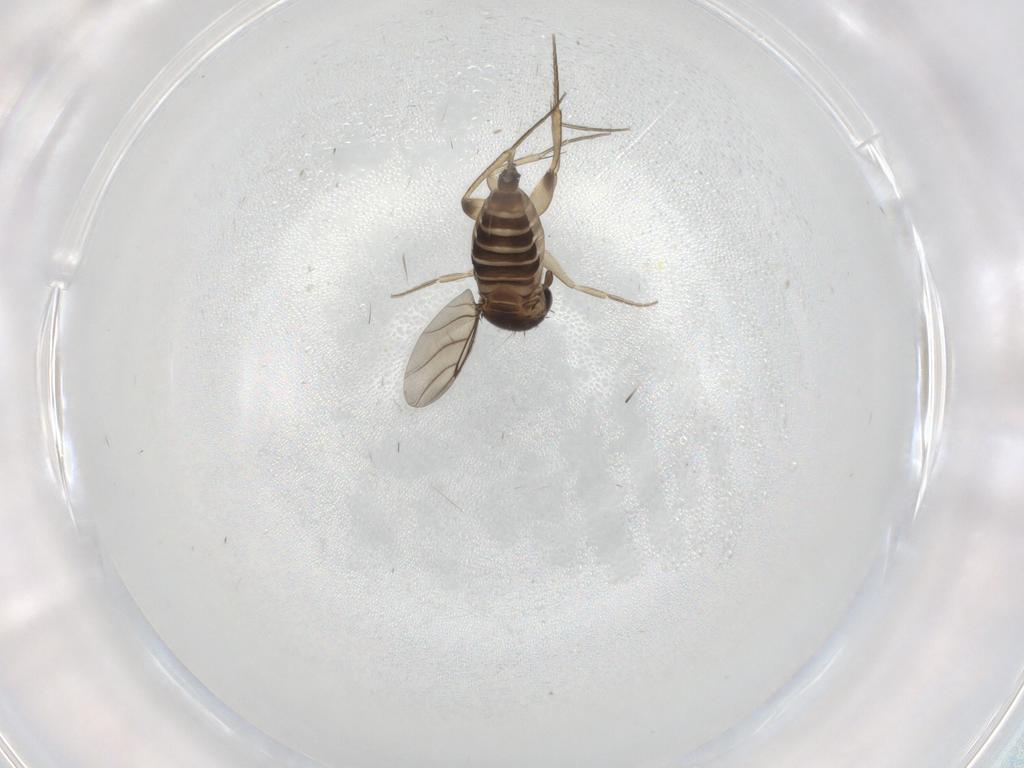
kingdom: Animalia
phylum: Arthropoda
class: Insecta
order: Diptera
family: Phoridae
